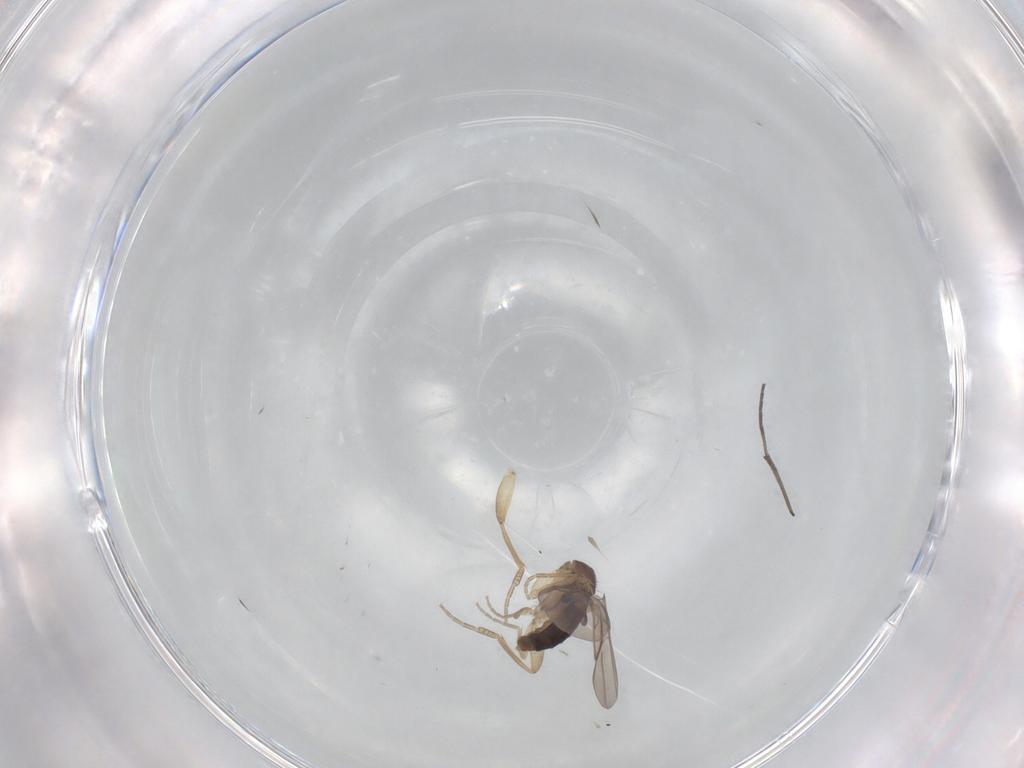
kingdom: Animalia
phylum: Arthropoda
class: Insecta
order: Diptera
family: Phoridae
